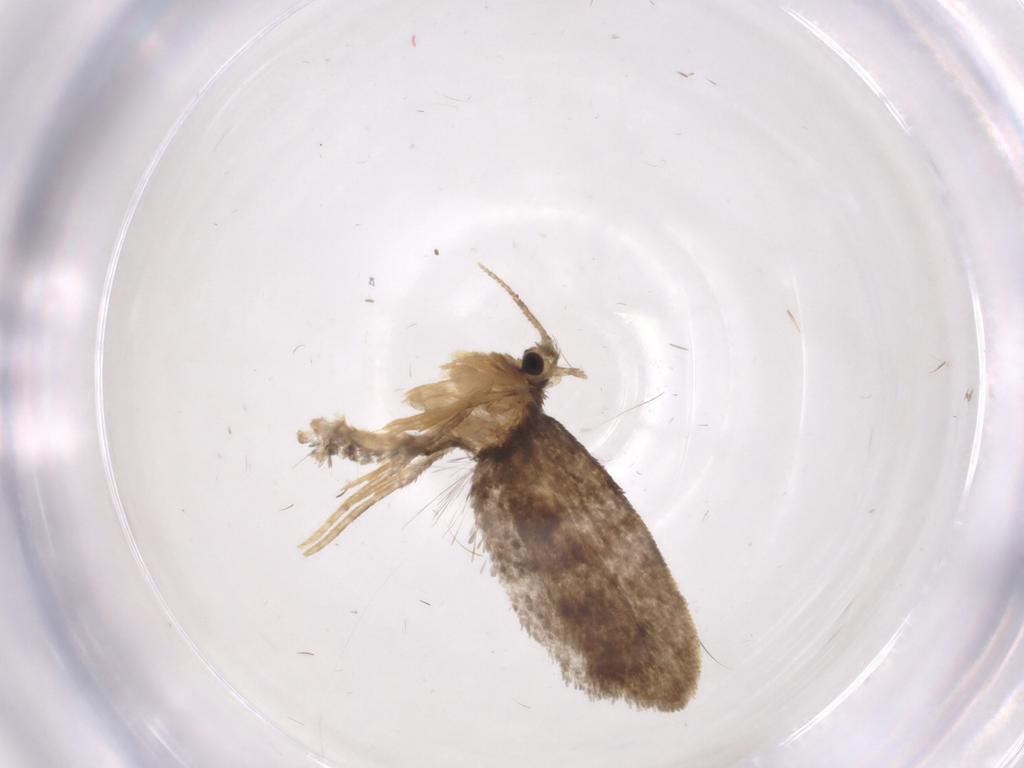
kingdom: Animalia
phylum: Arthropoda
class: Insecta
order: Lepidoptera
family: Psychidae
